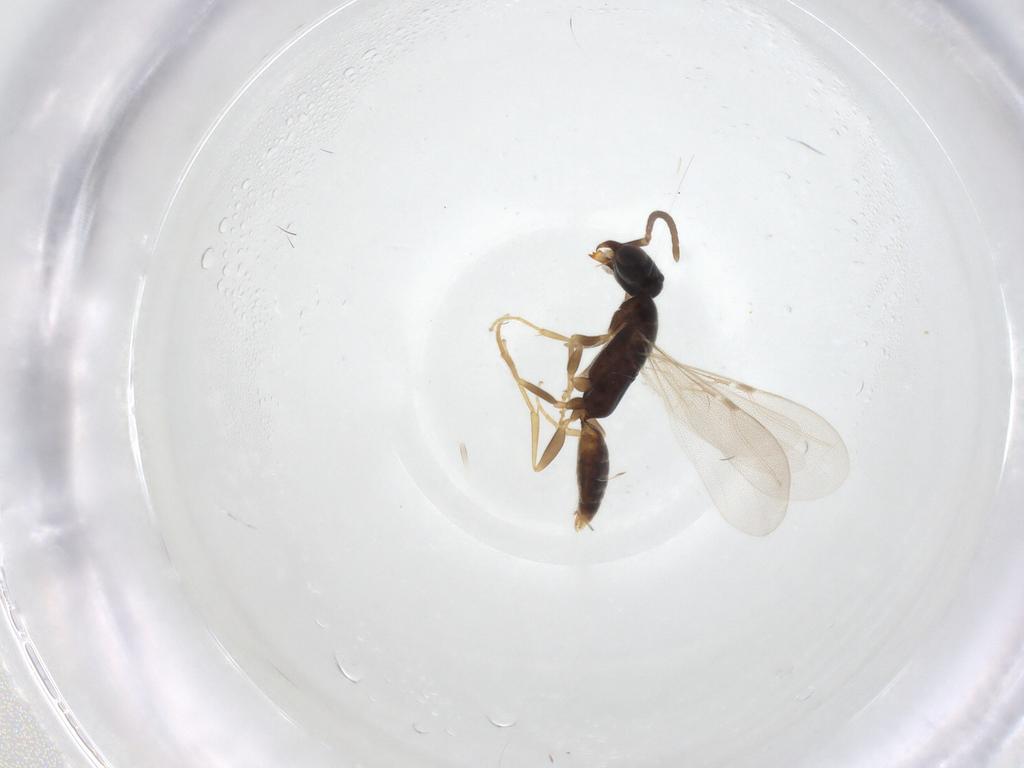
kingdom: Animalia
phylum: Arthropoda
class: Insecta
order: Hymenoptera
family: Bethylidae
